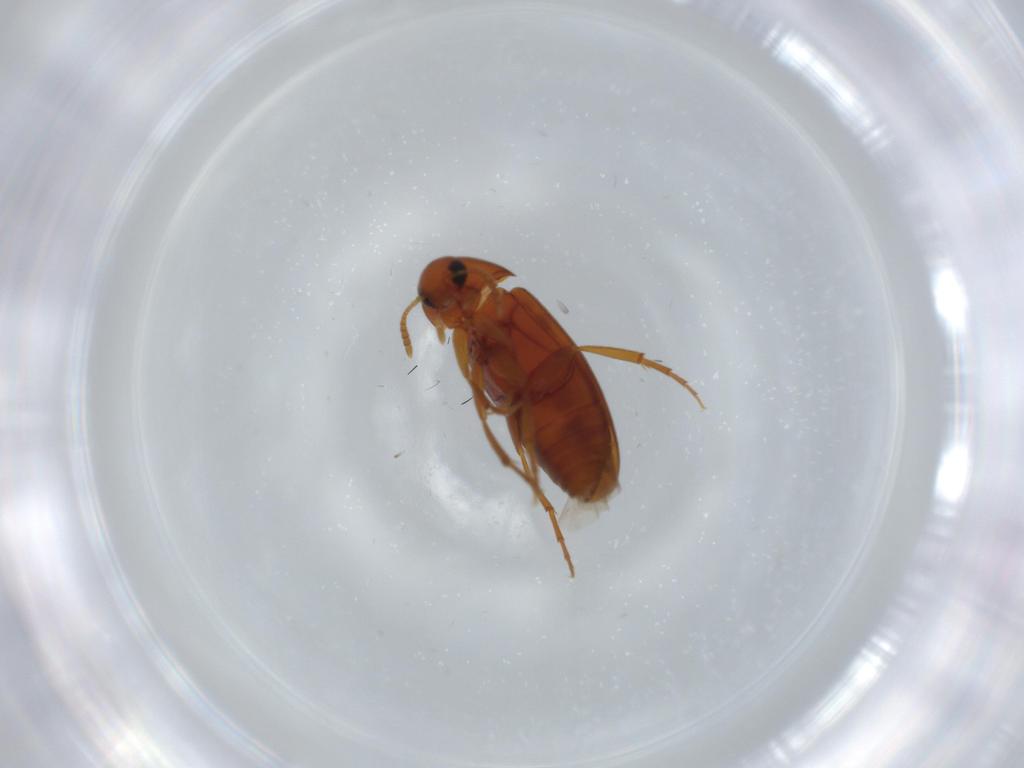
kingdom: Animalia
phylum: Arthropoda
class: Insecta
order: Coleoptera
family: Scraptiidae
